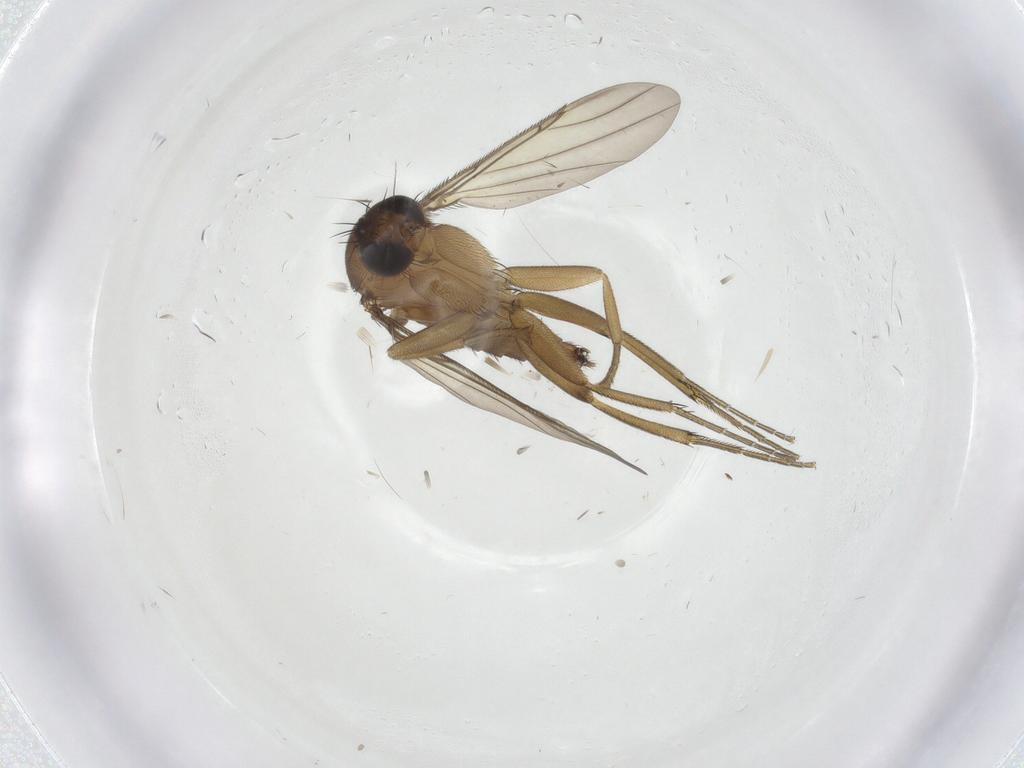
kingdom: Animalia
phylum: Arthropoda
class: Insecta
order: Diptera
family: Phoridae
